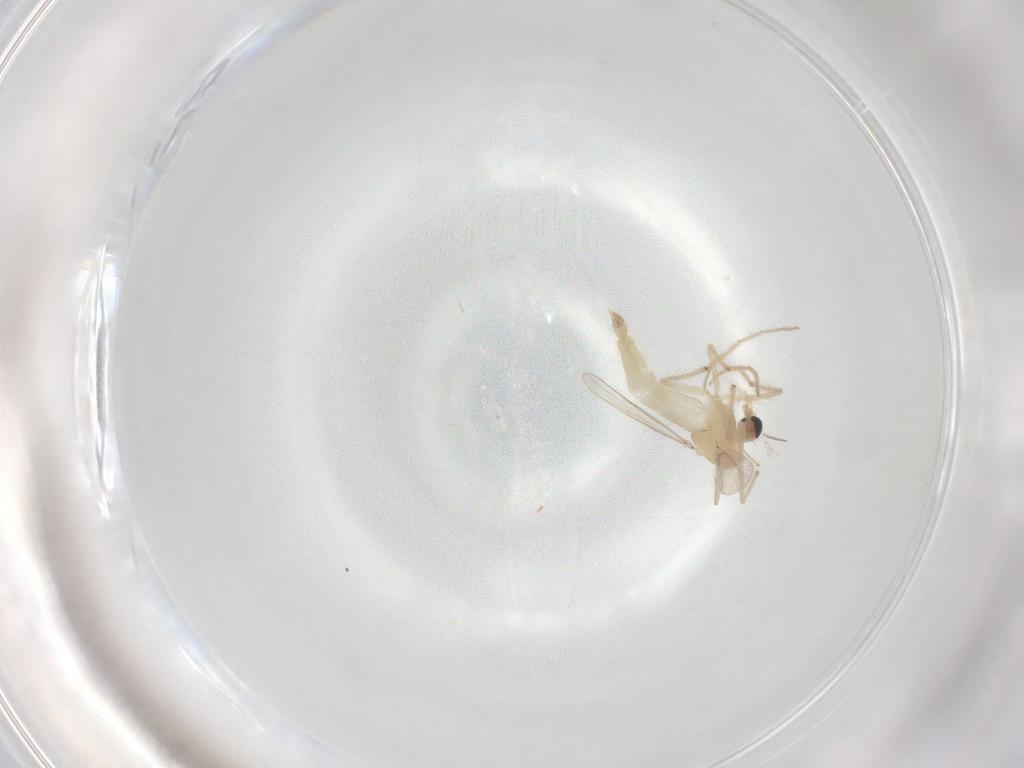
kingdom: Animalia
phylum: Arthropoda
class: Insecta
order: Diptera
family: Chironomidae
